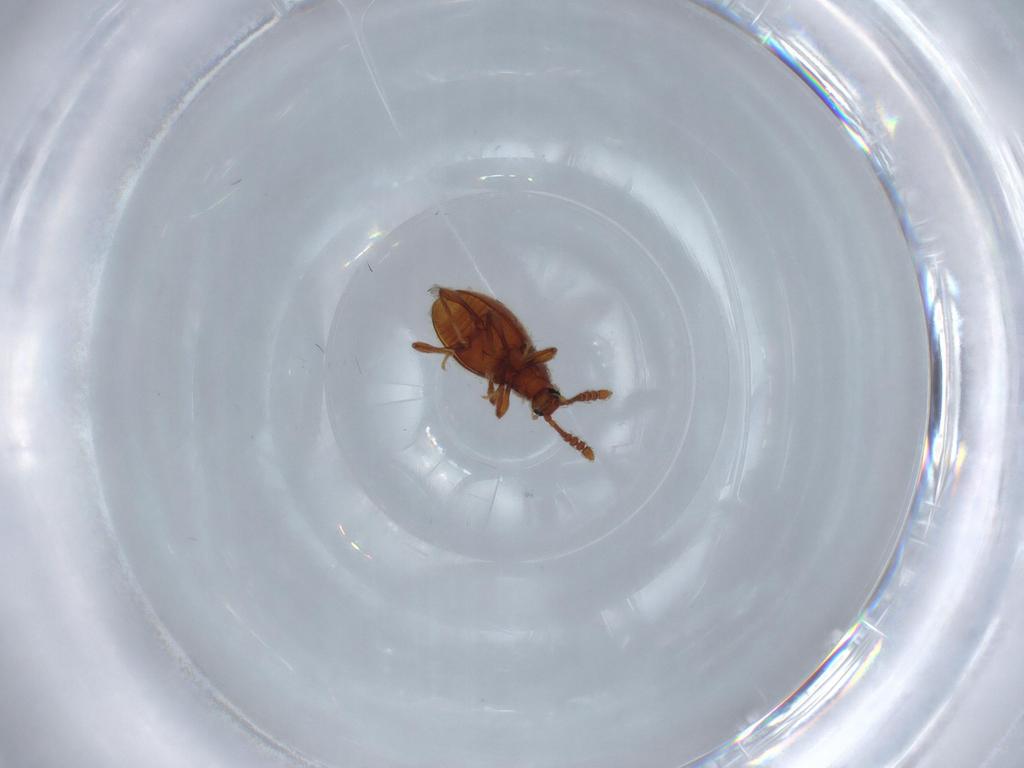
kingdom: Animalia
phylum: Arthropoda
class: Insecta
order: Coleoptera
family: Staphylinidae
